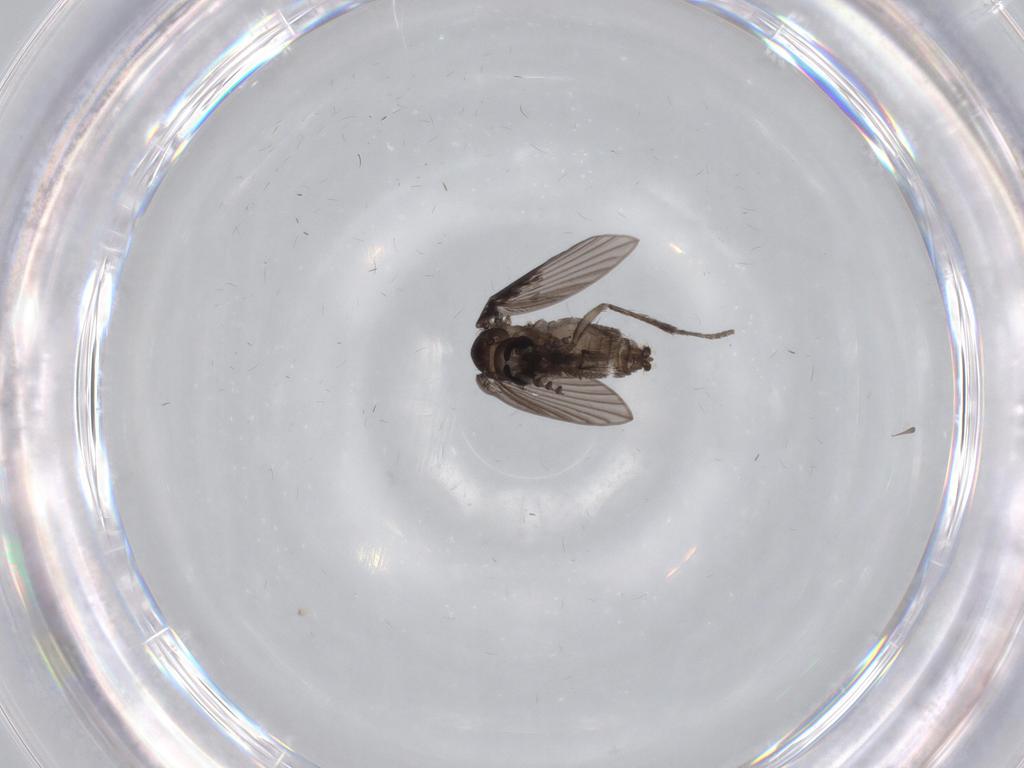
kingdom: Animalia
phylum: Arthropoda
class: Insecta
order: Diptera
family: Psychodidae
